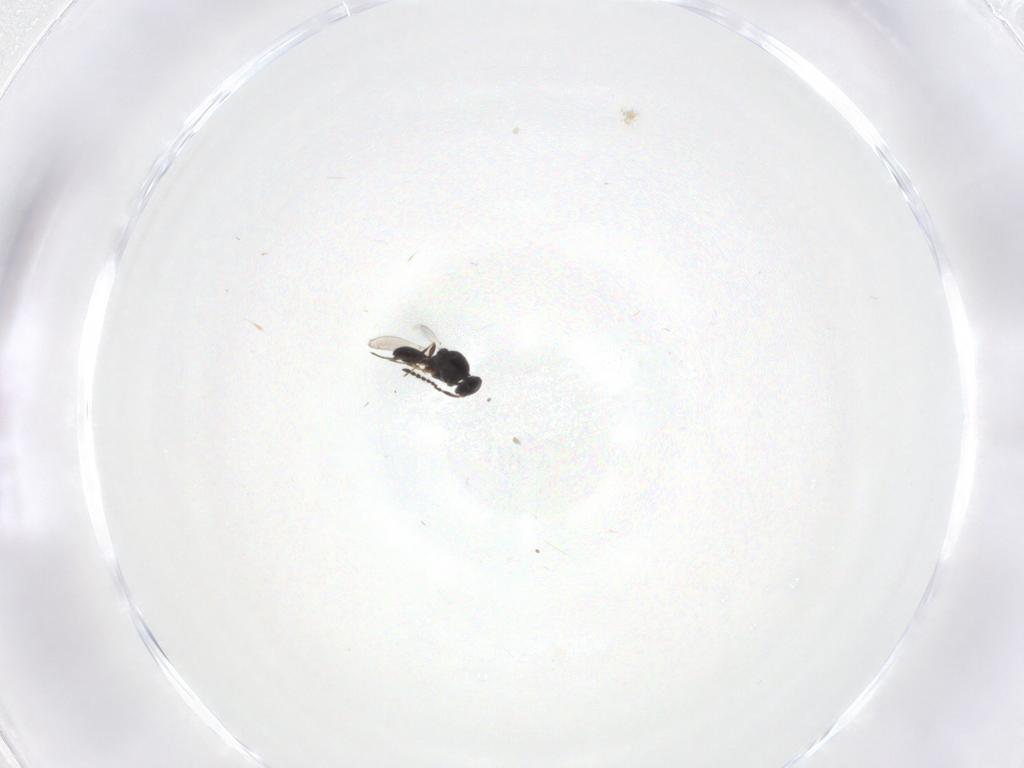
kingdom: Animalia
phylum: Arthropoda
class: Insecta
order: Hymenoptera
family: Platygastridae
